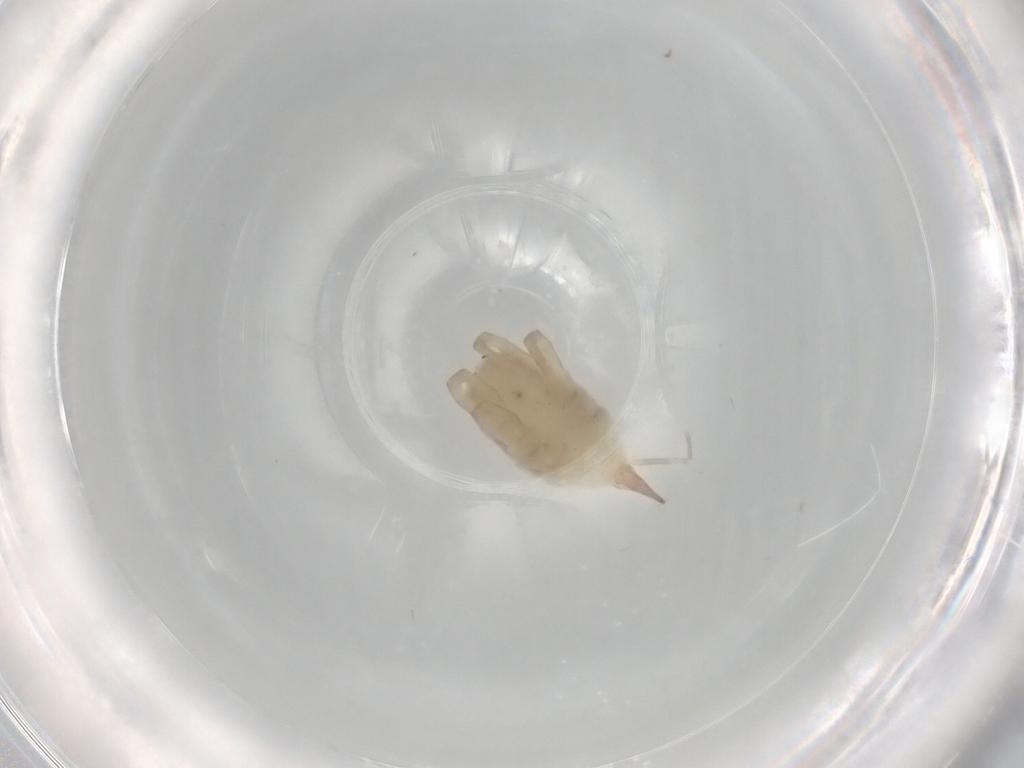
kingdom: Animalia
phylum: Arthropoda
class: Arachnida
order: Trombidiformes
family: Bdellidae
